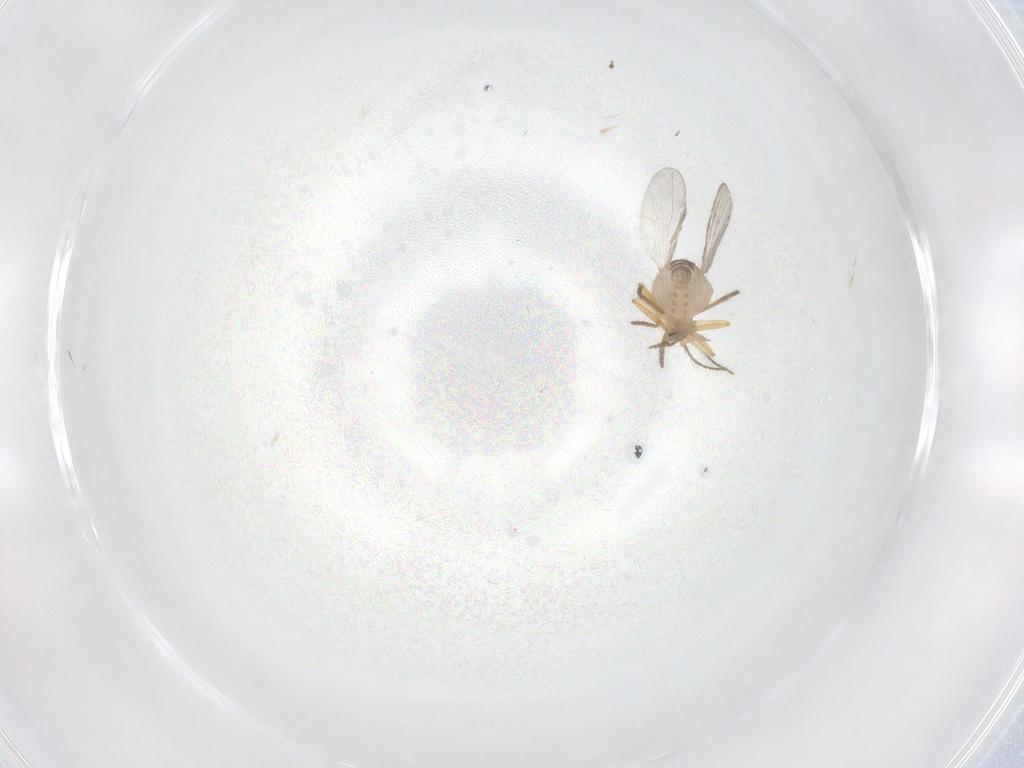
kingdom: Animalia
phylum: Arthropoda
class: Insecta
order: Diptera
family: Ceratopogonidae
